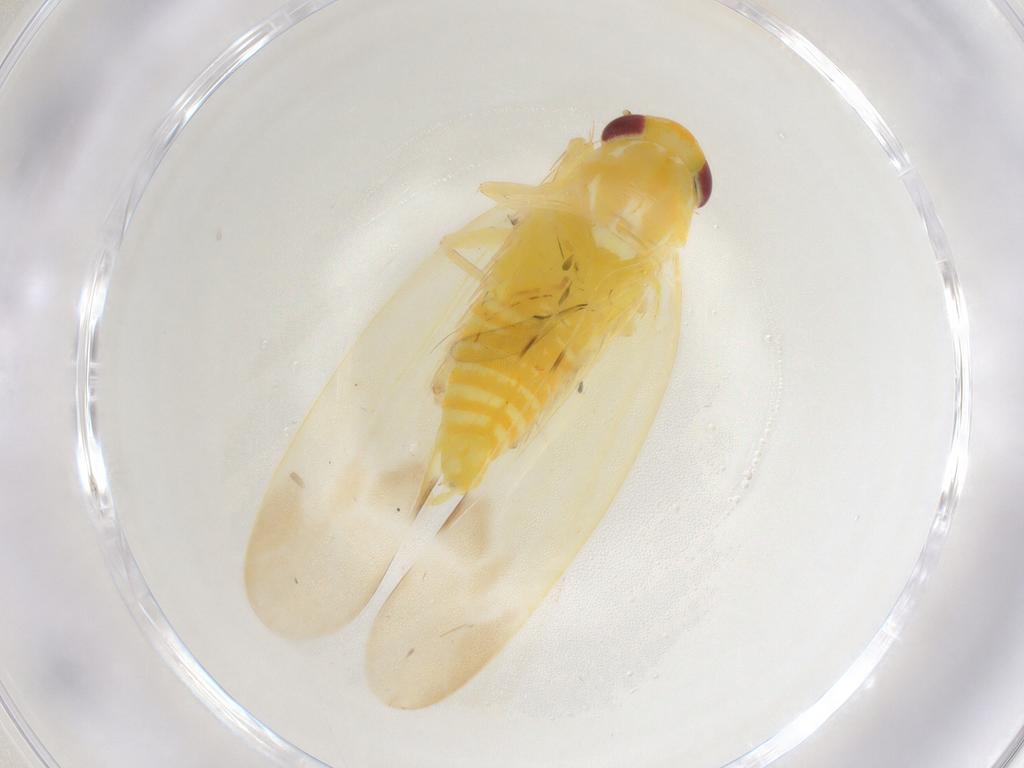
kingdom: Animalia
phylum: Arthropoda
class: Insecta
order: Hemiptera
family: Cicadellidae
